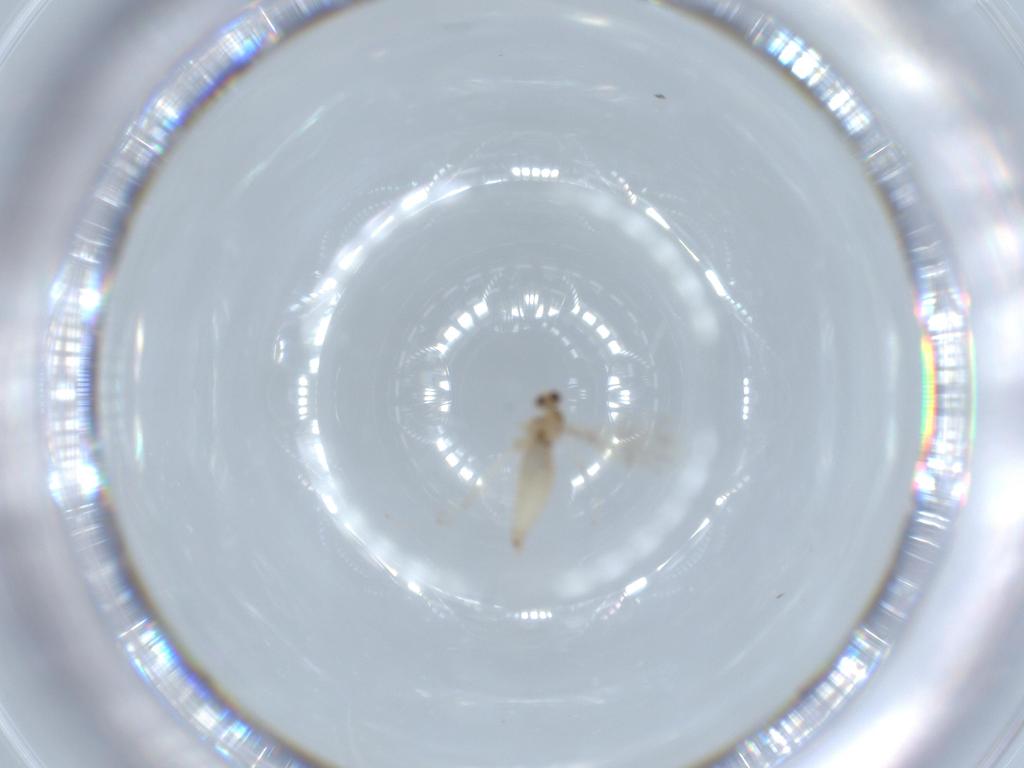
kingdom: Animalia
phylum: Arthropoda
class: Insecta
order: Diptera
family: Cecidomyiidae
